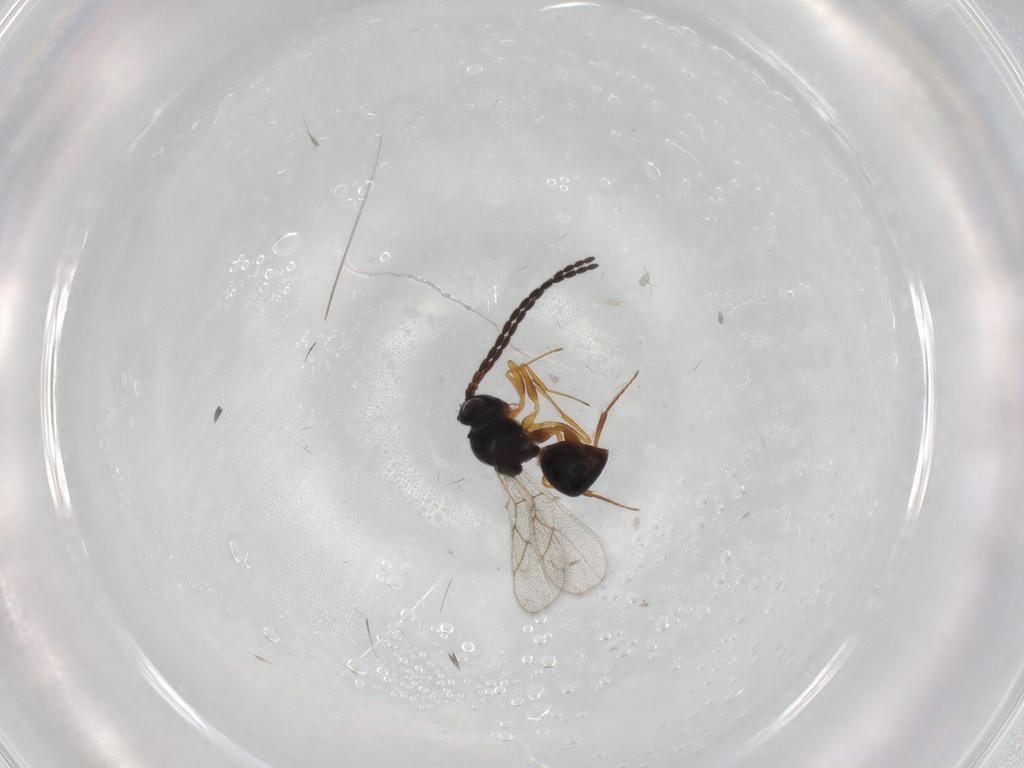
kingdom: Animalia
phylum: Arthropoda
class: Insecta
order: Hymenoptera
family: Figitidae
